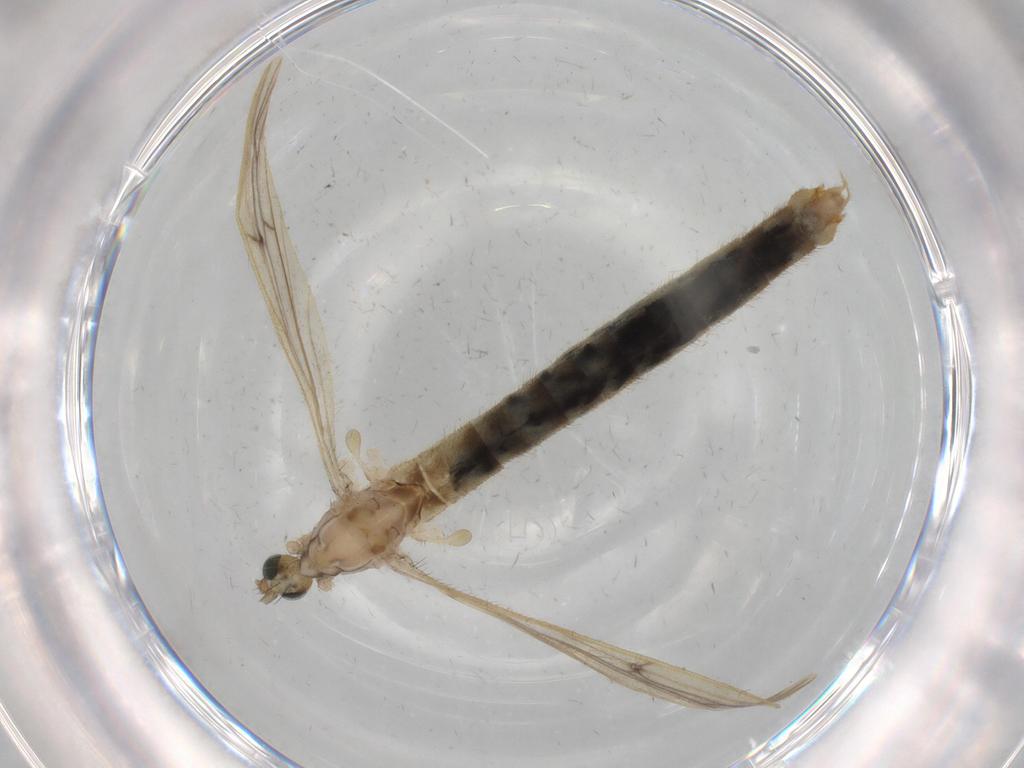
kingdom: Animalia
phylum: Arthropoda
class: Insecta
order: Diptera
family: Limoniidae
